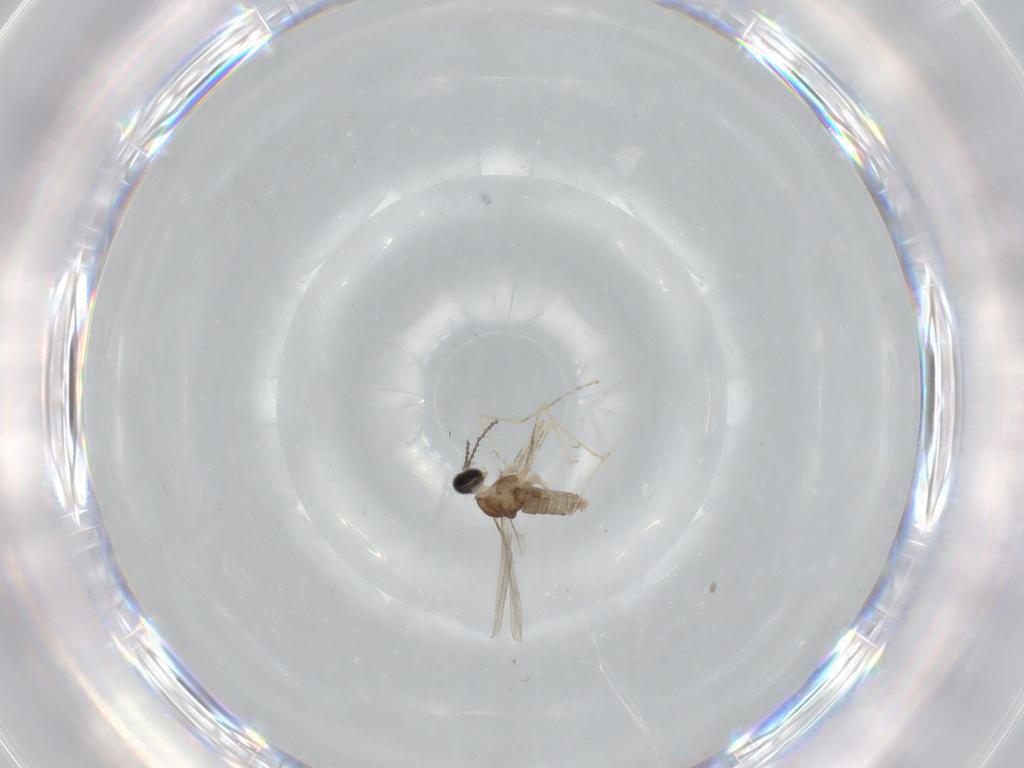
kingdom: Animalia
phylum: Arthropoda
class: Insecta
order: Diptera
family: Cecidomyiidae
